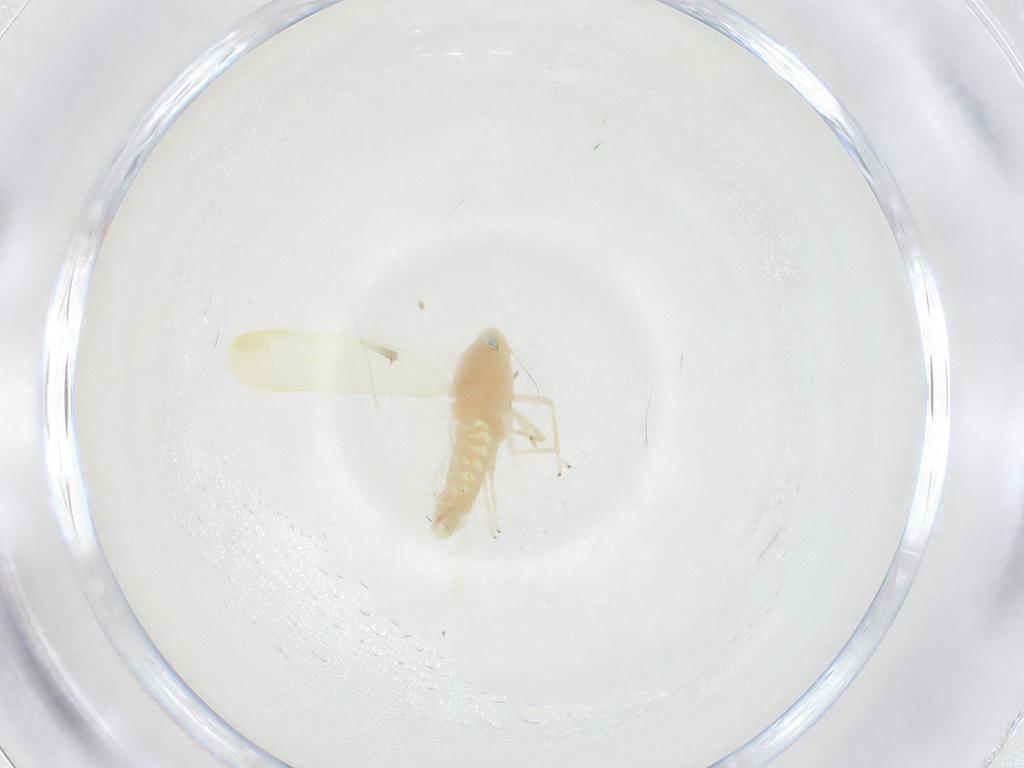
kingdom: Animalia
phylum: Arthropoda
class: Insecta
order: Hemiptera
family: Cicadellidae
